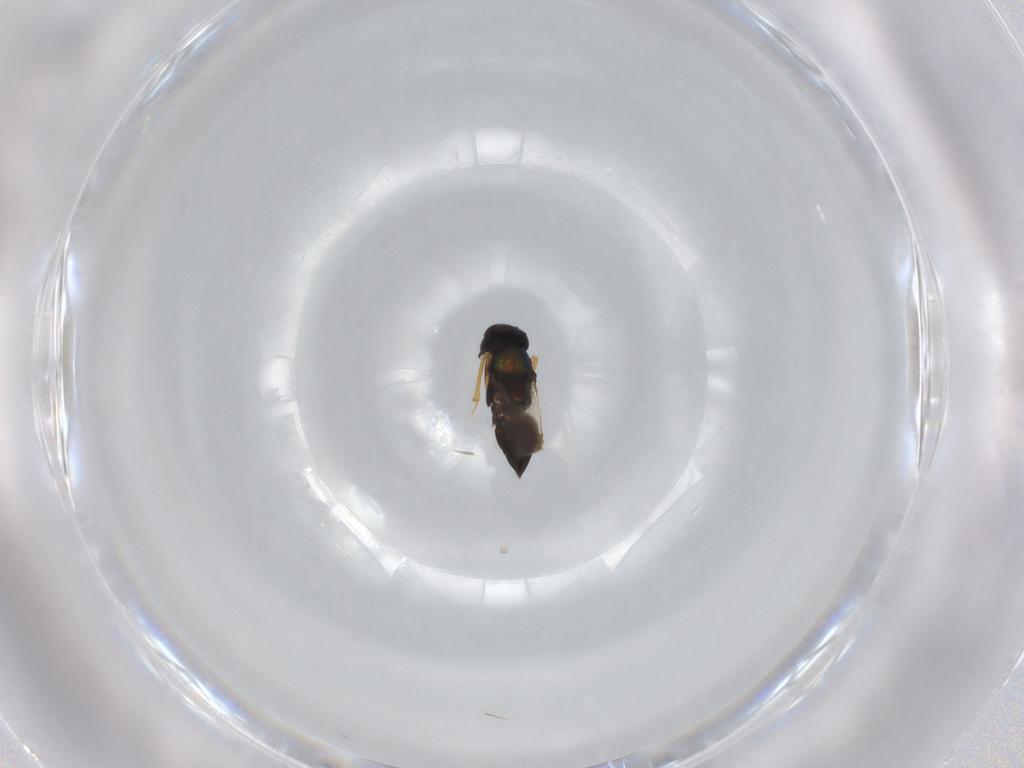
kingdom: Animalia
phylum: Arthropoda
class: Insecta
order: Hymenoptera
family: Encyrtidae
